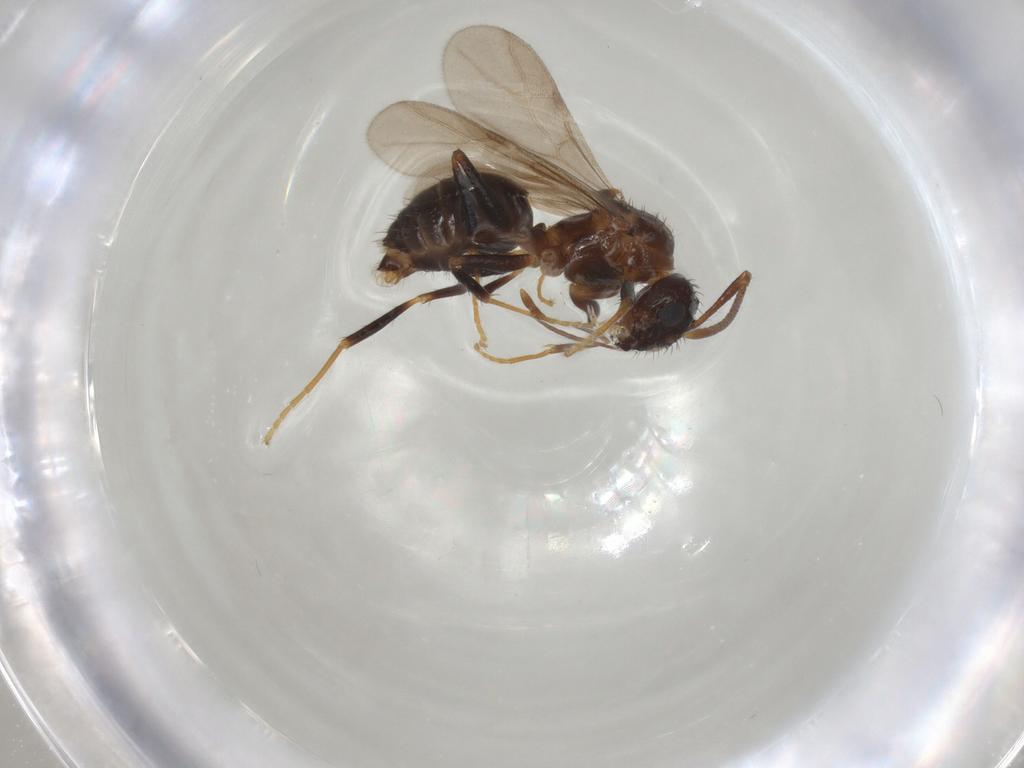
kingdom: Animalia
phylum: Arthropoda
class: Insecta
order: Hymenoptera
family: Formicidae
